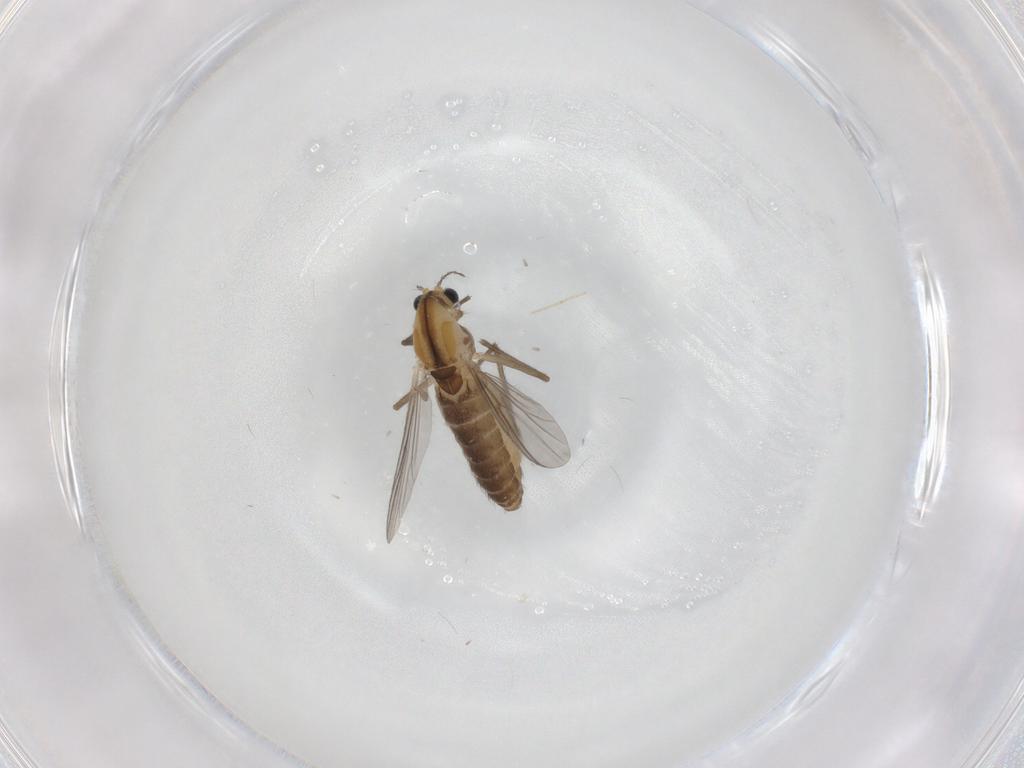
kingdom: Animalia
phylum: Arthropoda
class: Insecta
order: Diptera
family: Chironomidae
